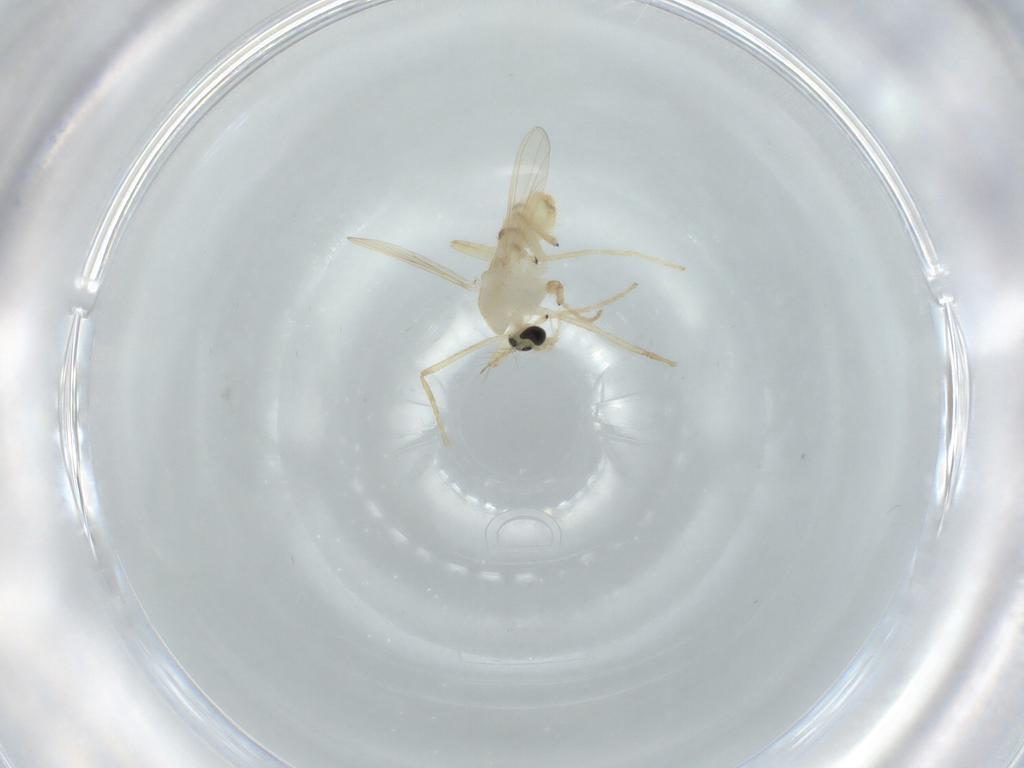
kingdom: Animalia
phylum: Arthropoda
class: Insecta
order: Diptera
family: Chironomidae
